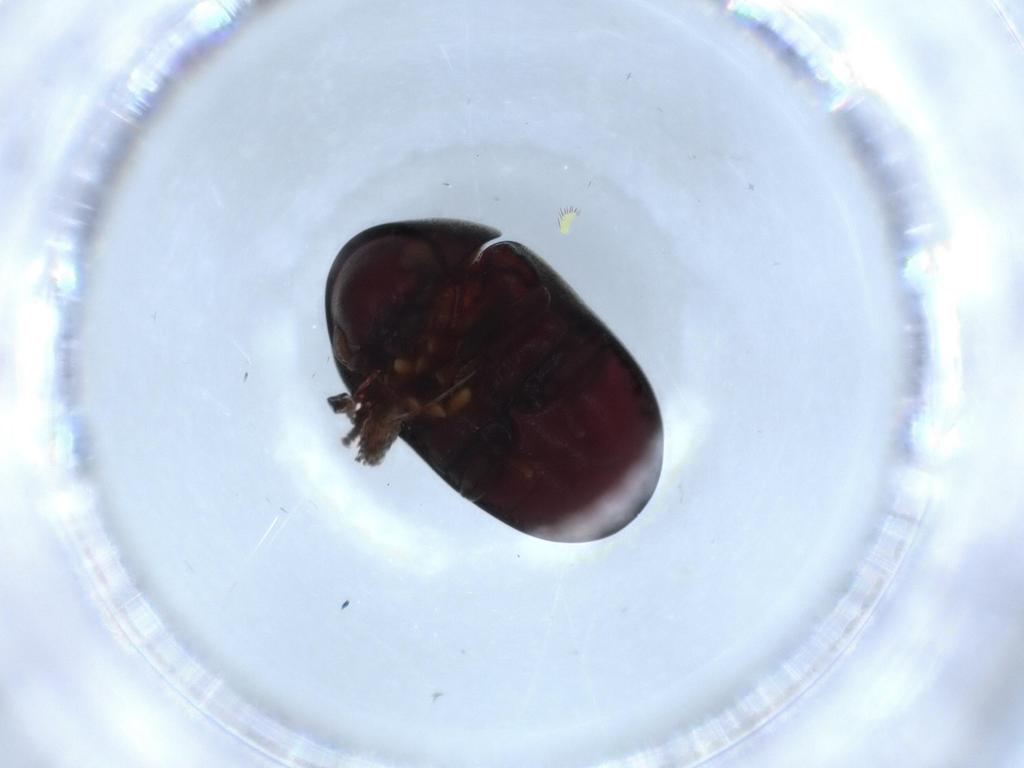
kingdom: Animalia
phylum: Arthropoda
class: Insecta
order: Coleoptera
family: Ptinidae
